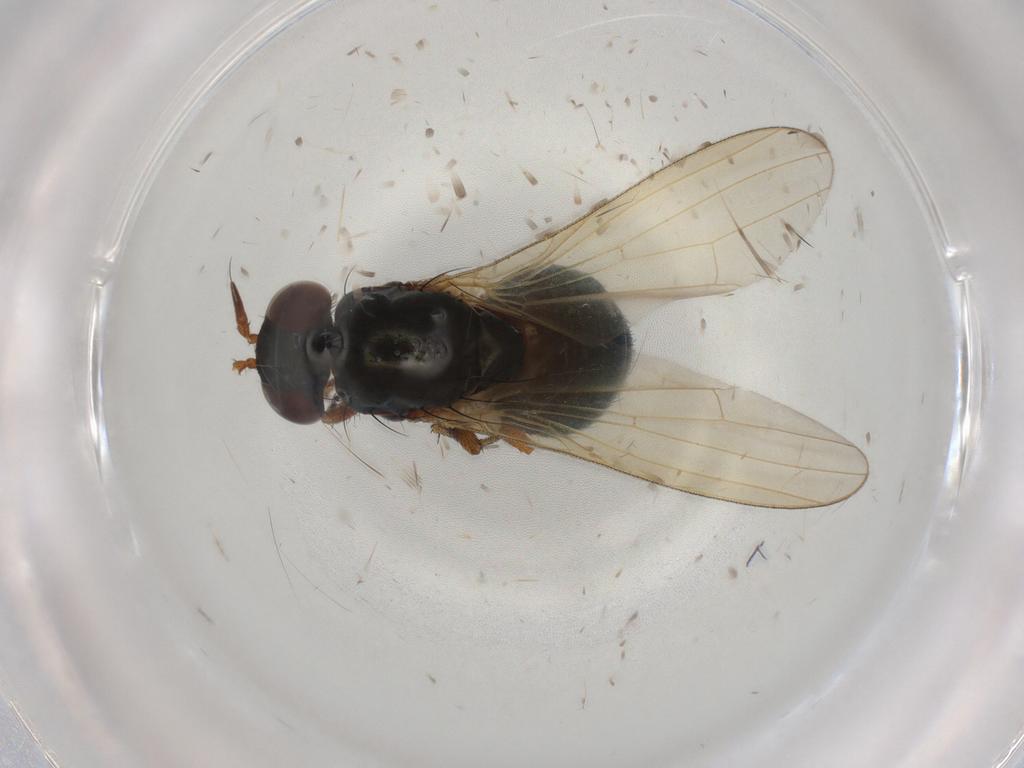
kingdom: Animalia
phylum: Arthropoda
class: Insecta
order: Diptera
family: Lauxaniidae
